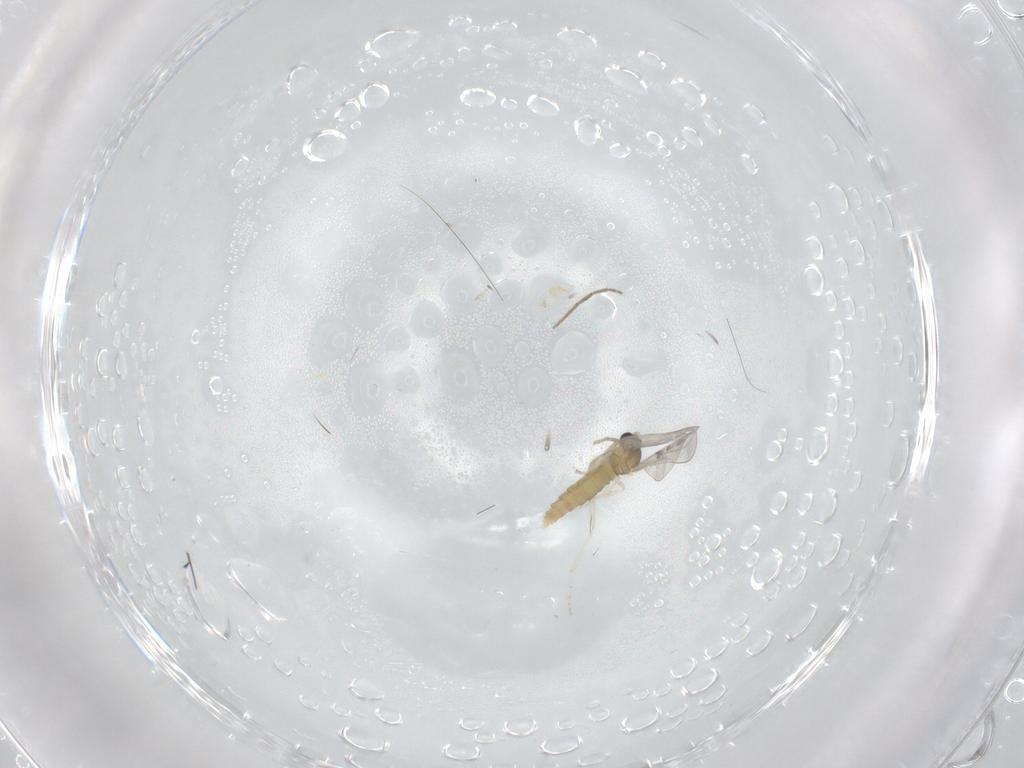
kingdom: Animalia
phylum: Arthropoda
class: Insecta
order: Diptera
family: Cecidomyiidae
